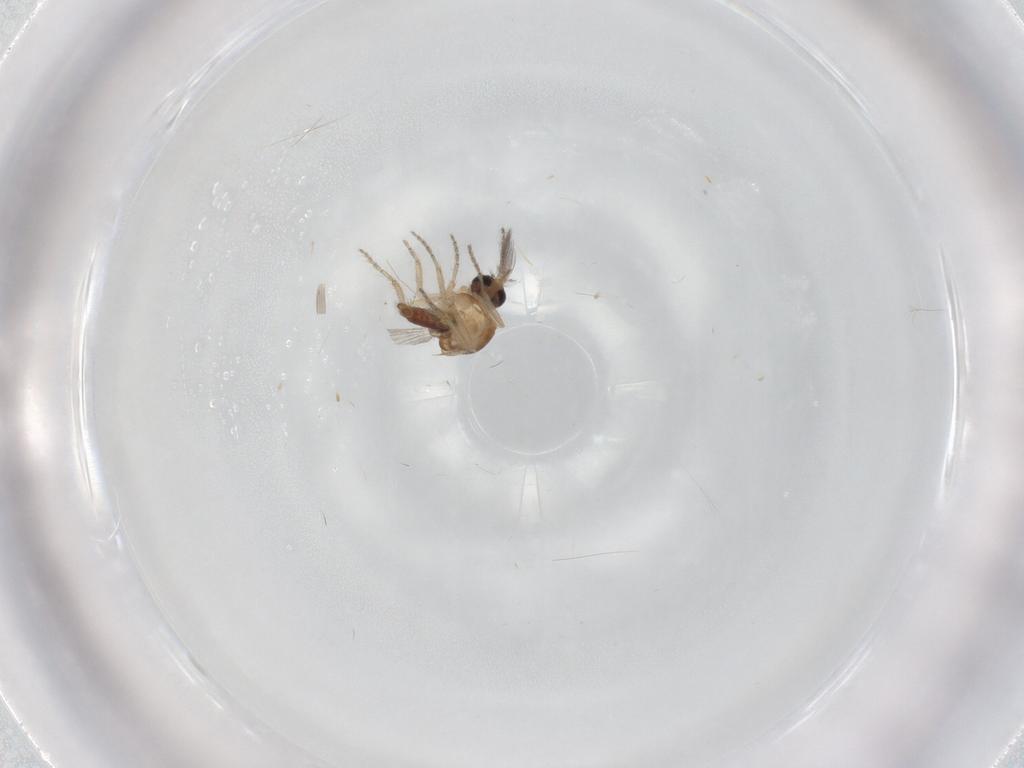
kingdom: Animalia
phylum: Arthropoda
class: Insecta
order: Diptera
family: Ceratopogonidae
